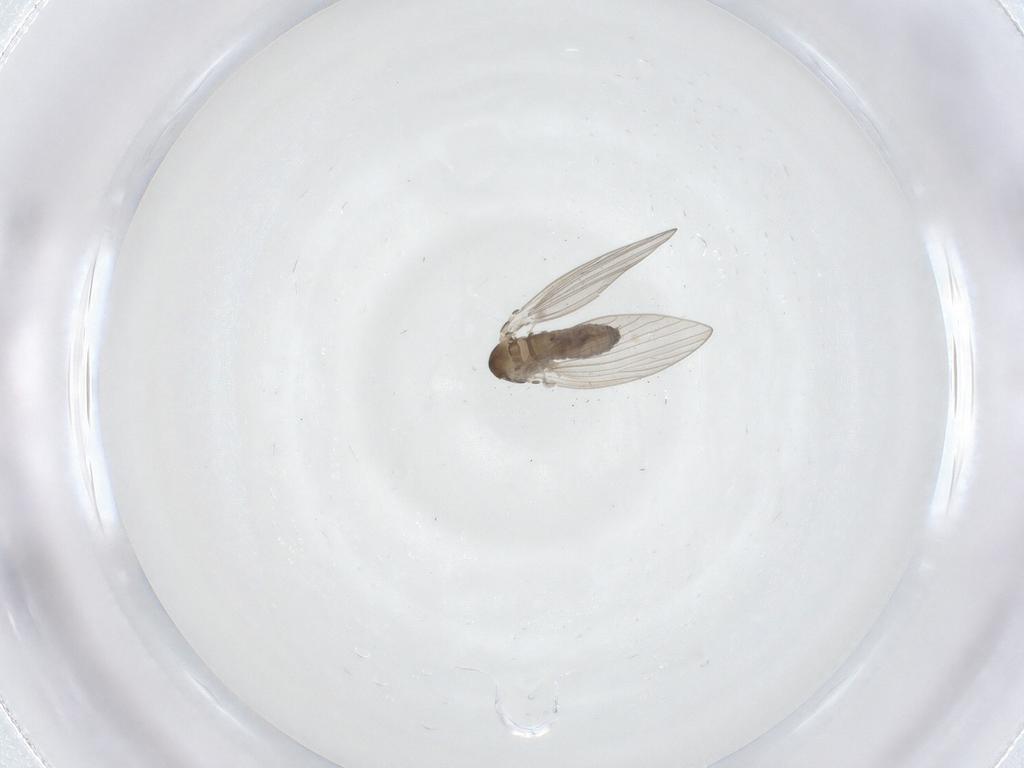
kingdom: Animalia
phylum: Arthropoda
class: Insecta
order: Diptera
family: Psychodidae
